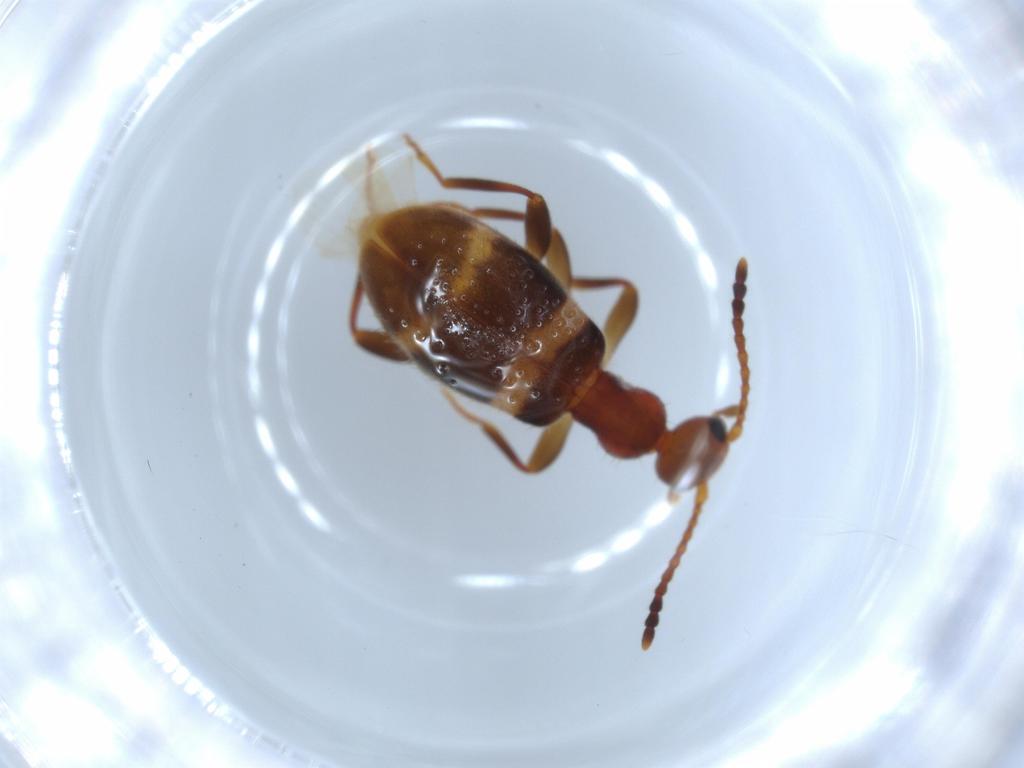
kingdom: Animalia
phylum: Arthropoda
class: Insecta
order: Coleoptera
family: Anthicidae
